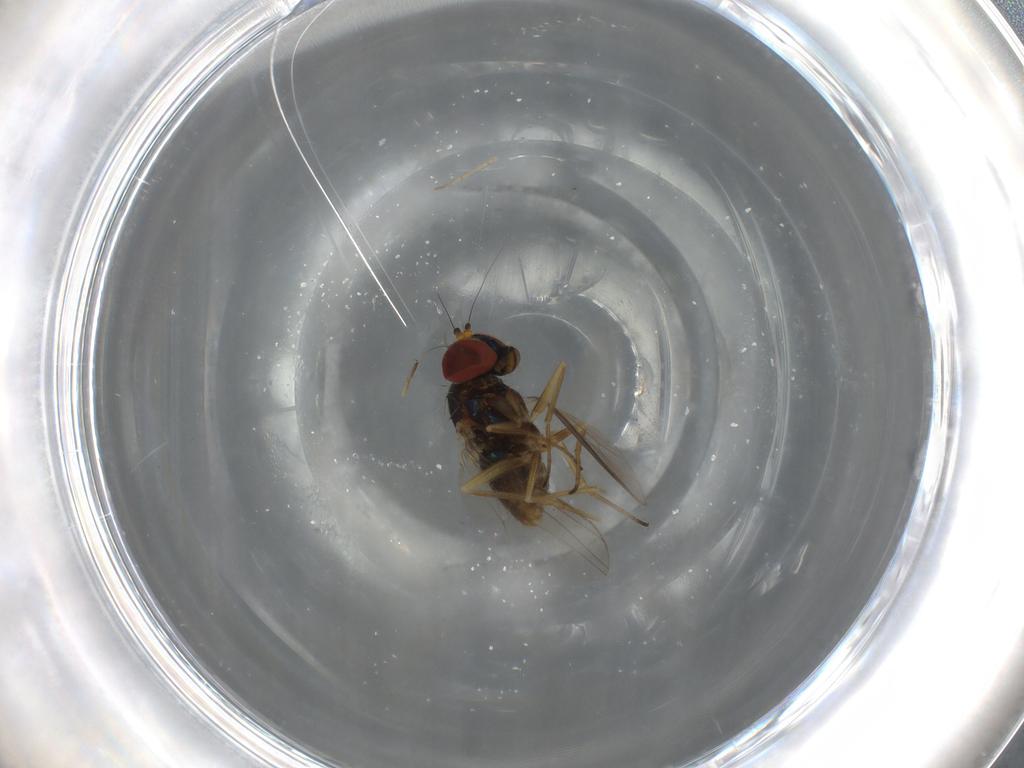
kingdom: Animalia
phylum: Arthropoda
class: Insecta
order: Diptera
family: Dolichopodidae
